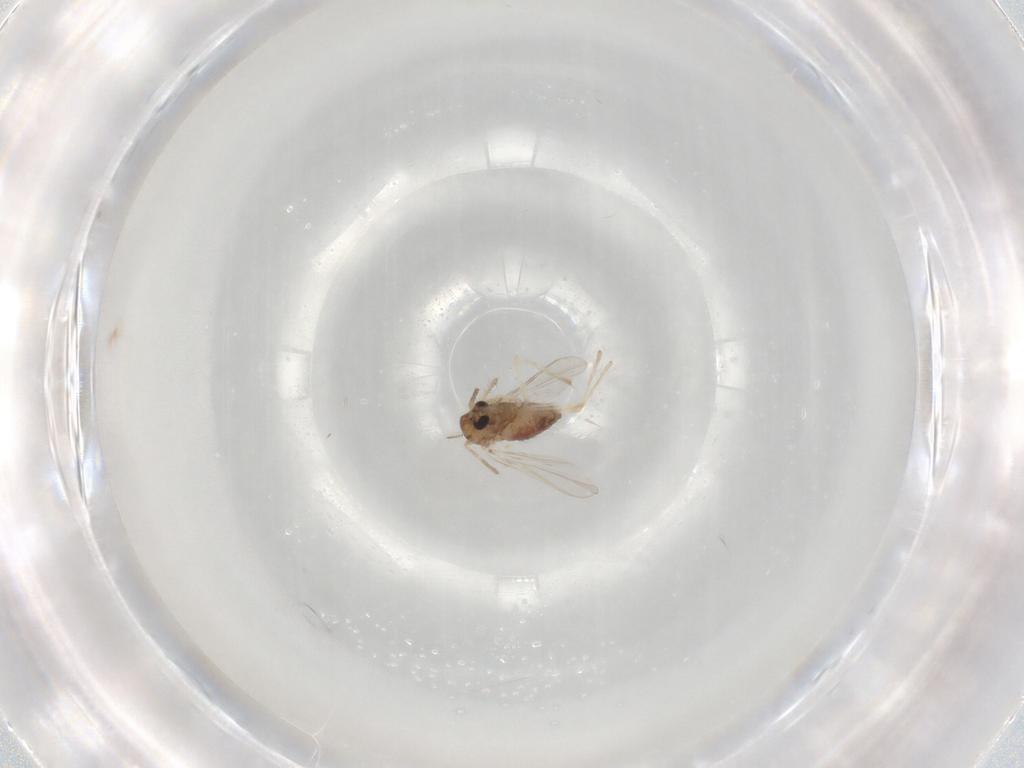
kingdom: Animalia
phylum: Arthropoda
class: Insecta
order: Diptera
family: Chironomidae
